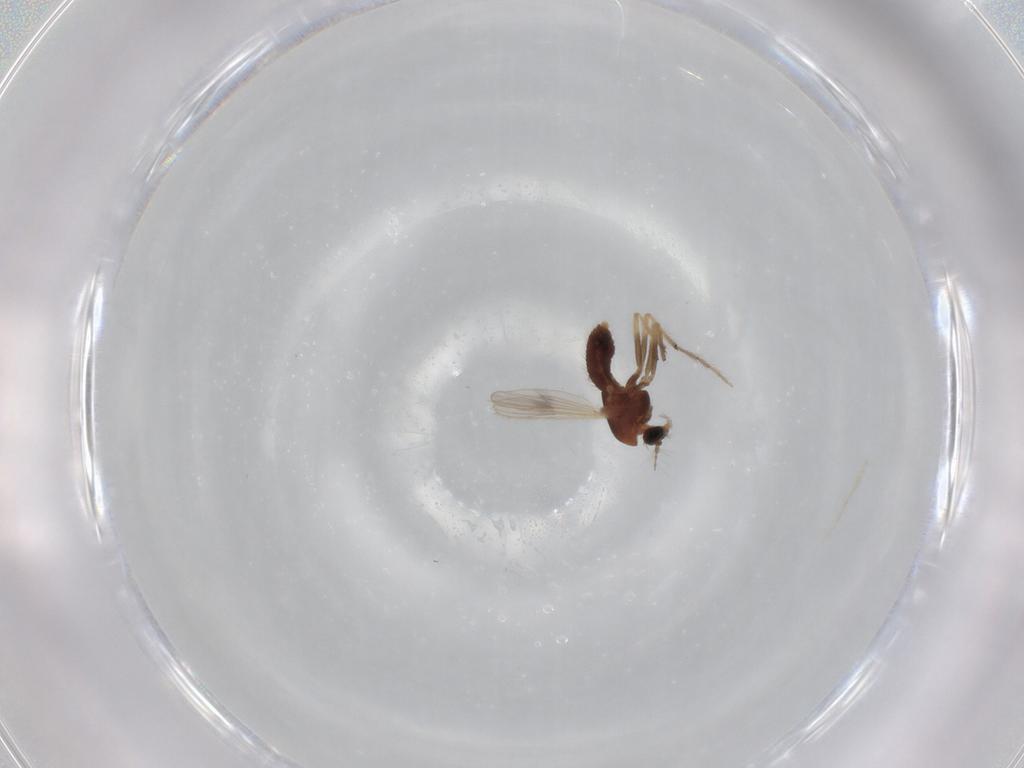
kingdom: Animalia
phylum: Arthropoda
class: Insecta
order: Diptera
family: Chironomidae
